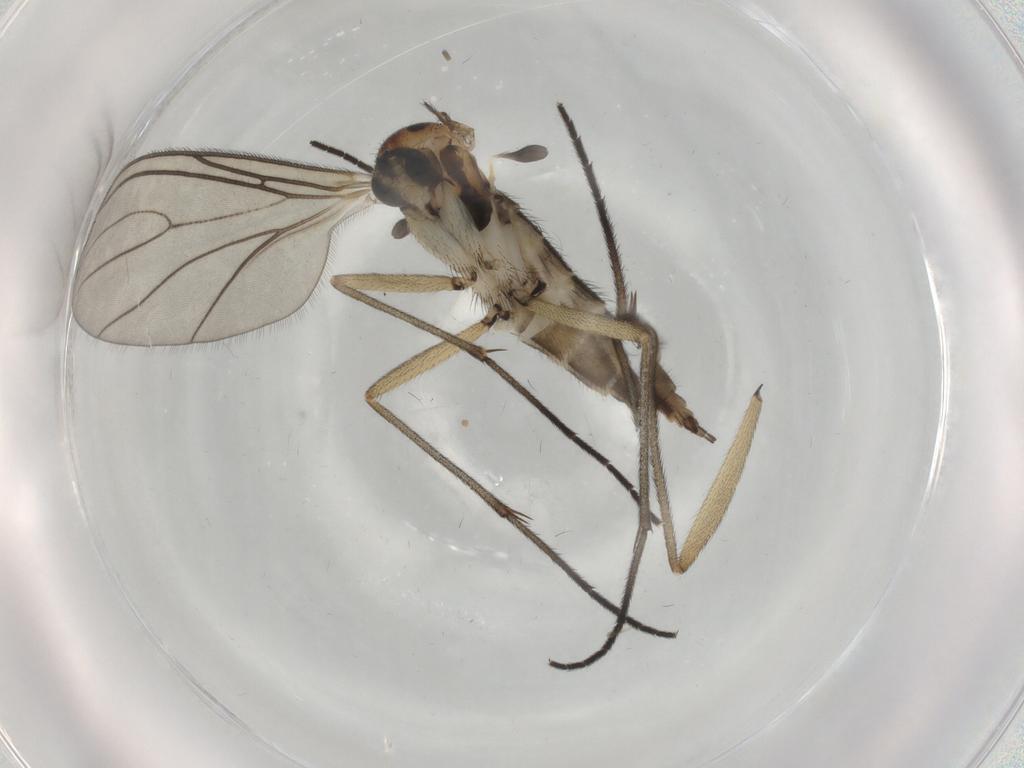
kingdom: Animalia
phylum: Arthropoda
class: Insecta
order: Diptera
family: Sciaridae
